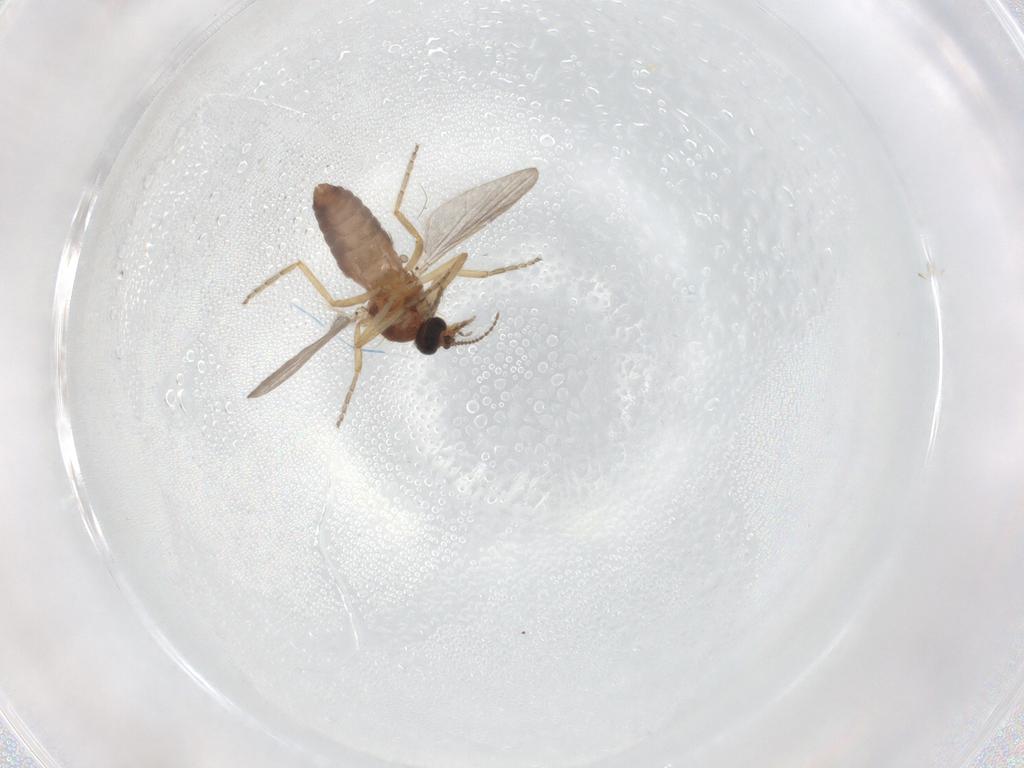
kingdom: Animalia
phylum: Arthropoda
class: Insecta
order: Diptera
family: Ceratopogonidae
